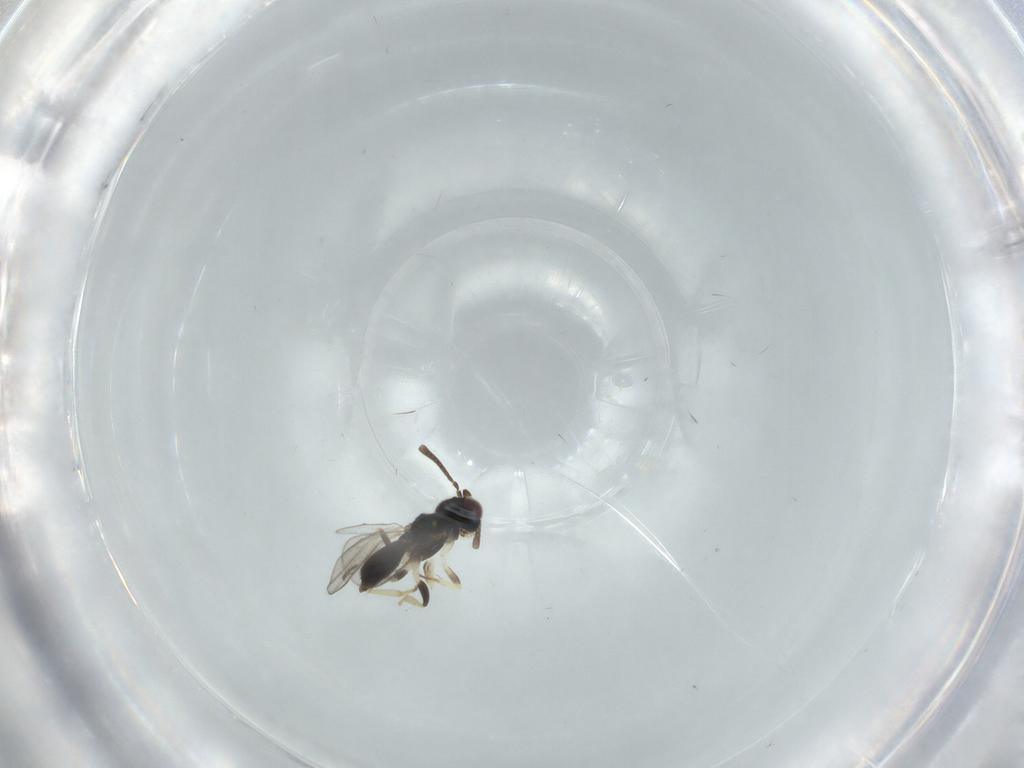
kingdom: Animalia
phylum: Arthropoda
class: Insecta
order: Hymenoptera
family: Eupelmidae
